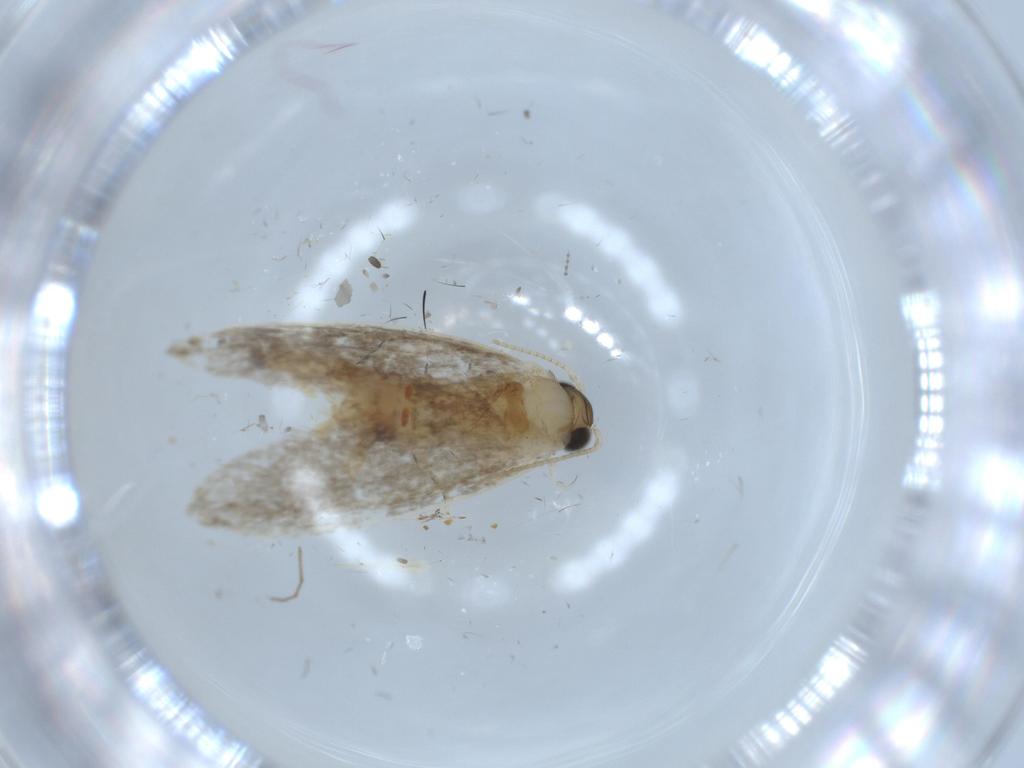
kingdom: Animalia
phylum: Arthropoda
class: Insecta
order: Lepidoptera
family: Tineidae
